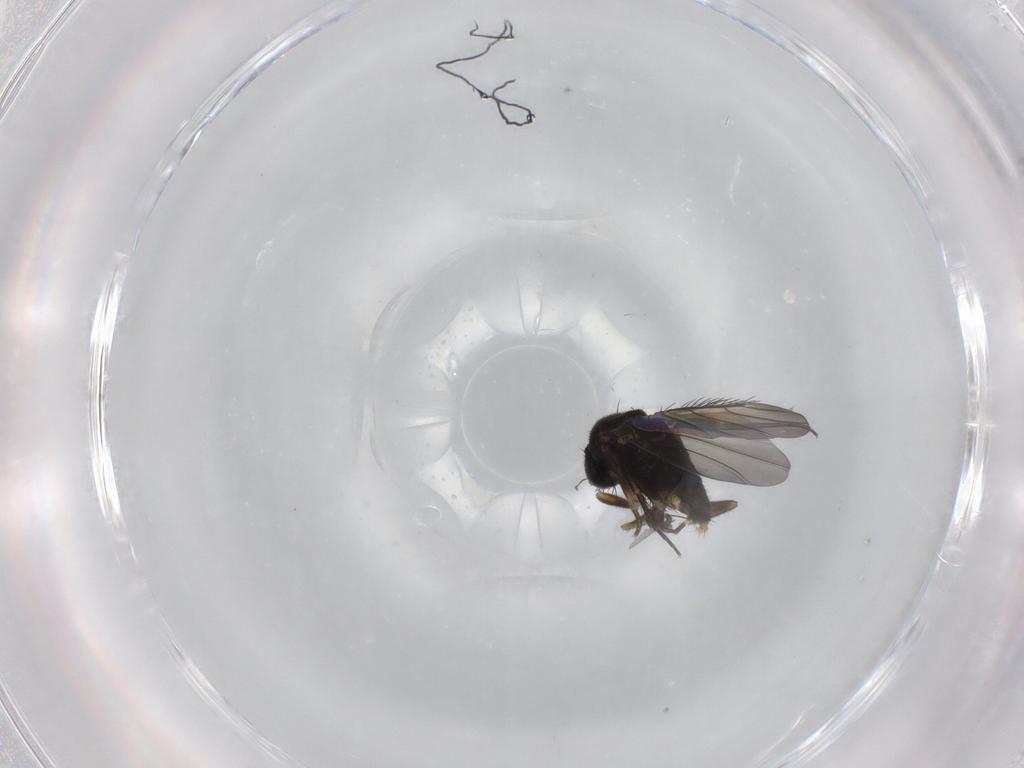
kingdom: Animalia
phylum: Arthropoda
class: Insecta
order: Diptera
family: Phoridae
